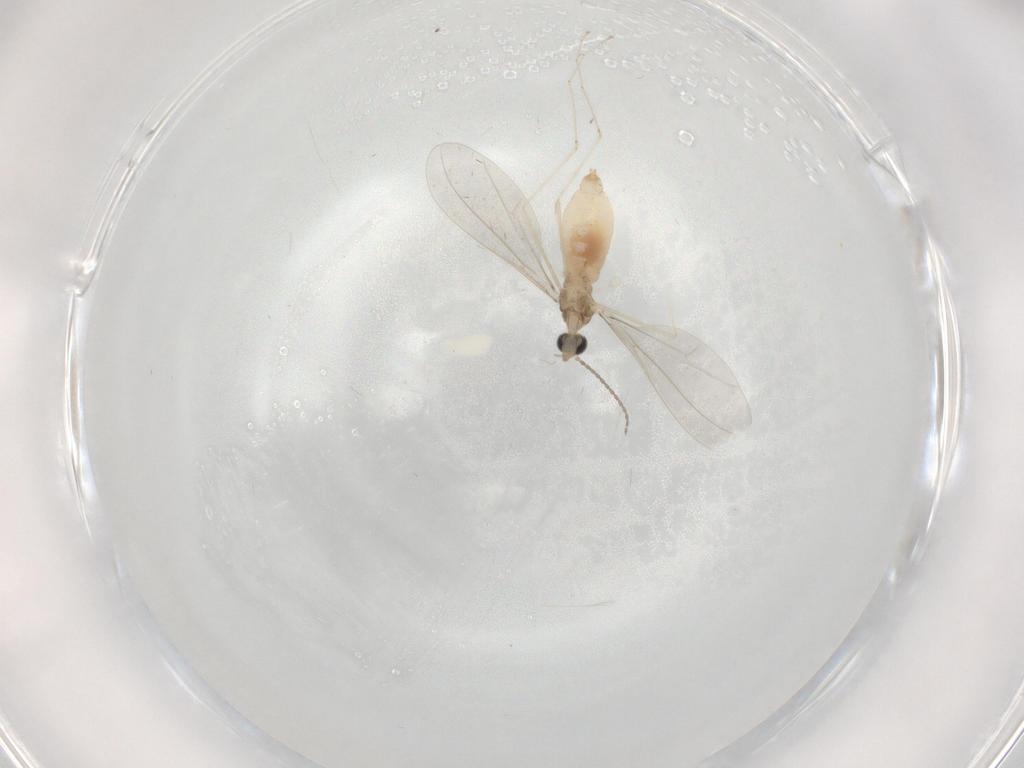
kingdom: Animalia
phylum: Arthropoda
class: Insecta
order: Diptera
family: Cecidomyiidae
